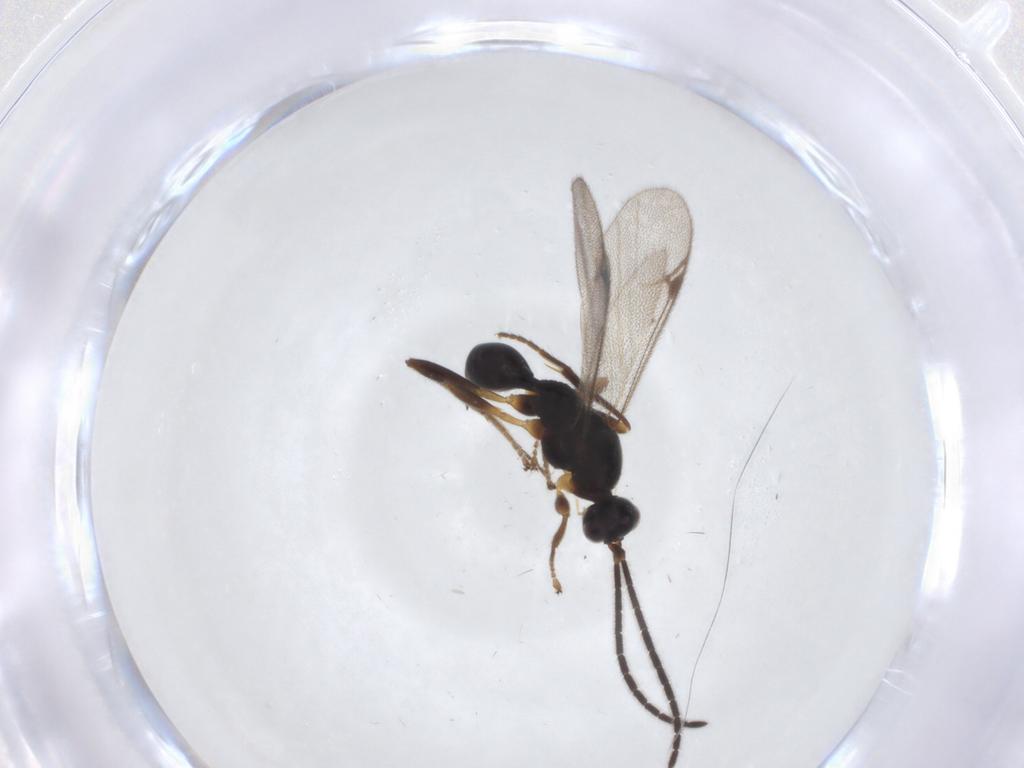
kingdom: Animalia
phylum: Arthropoda
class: Insecta
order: Hymenoptera
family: Proctotrupidae
